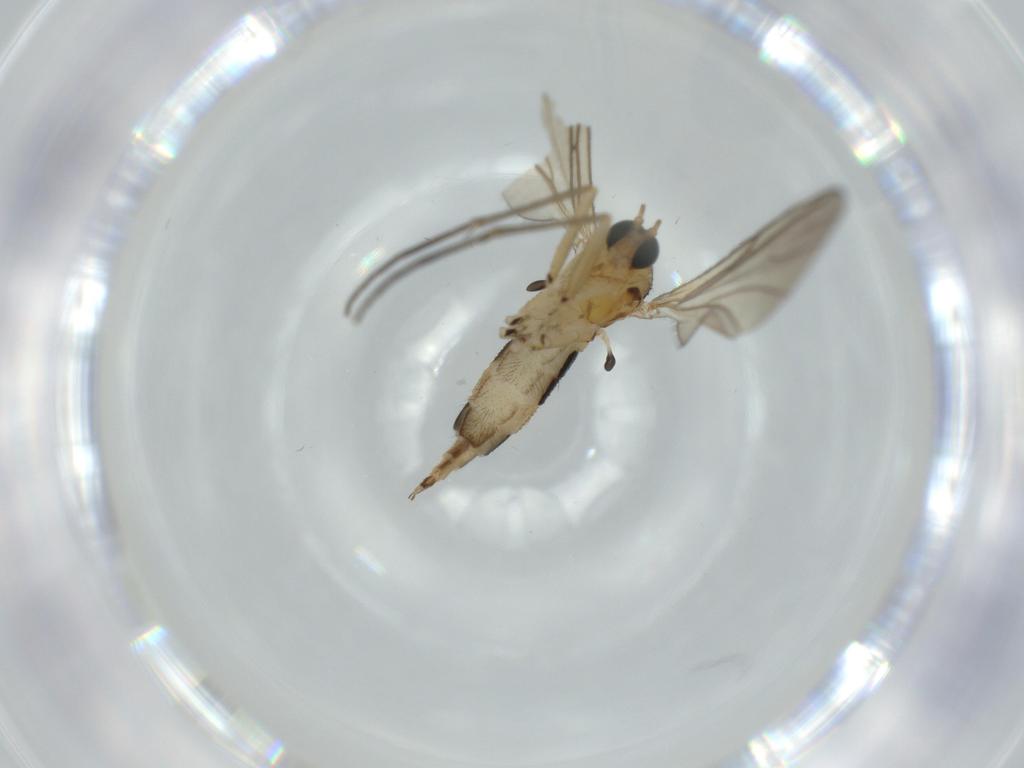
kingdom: Animalia
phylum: Arthropoda
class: Insecta
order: Diptera
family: Sciaridae
